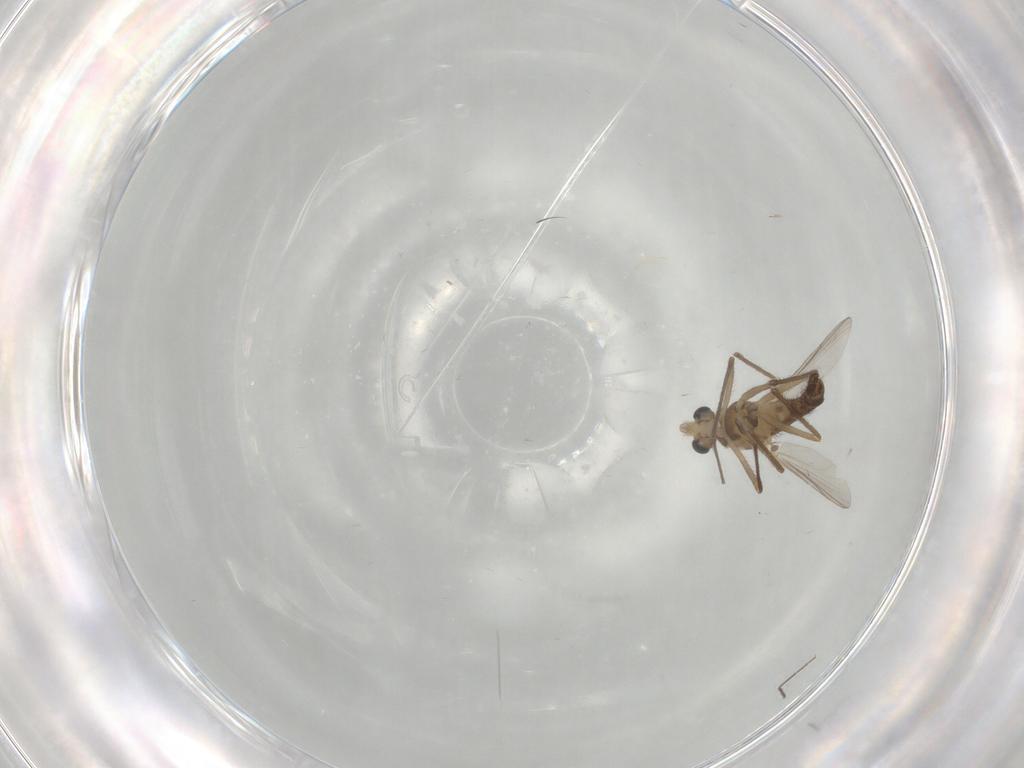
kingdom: Animalia
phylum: Arthropoda
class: Insecta
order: Diptera
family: Chironomidae
